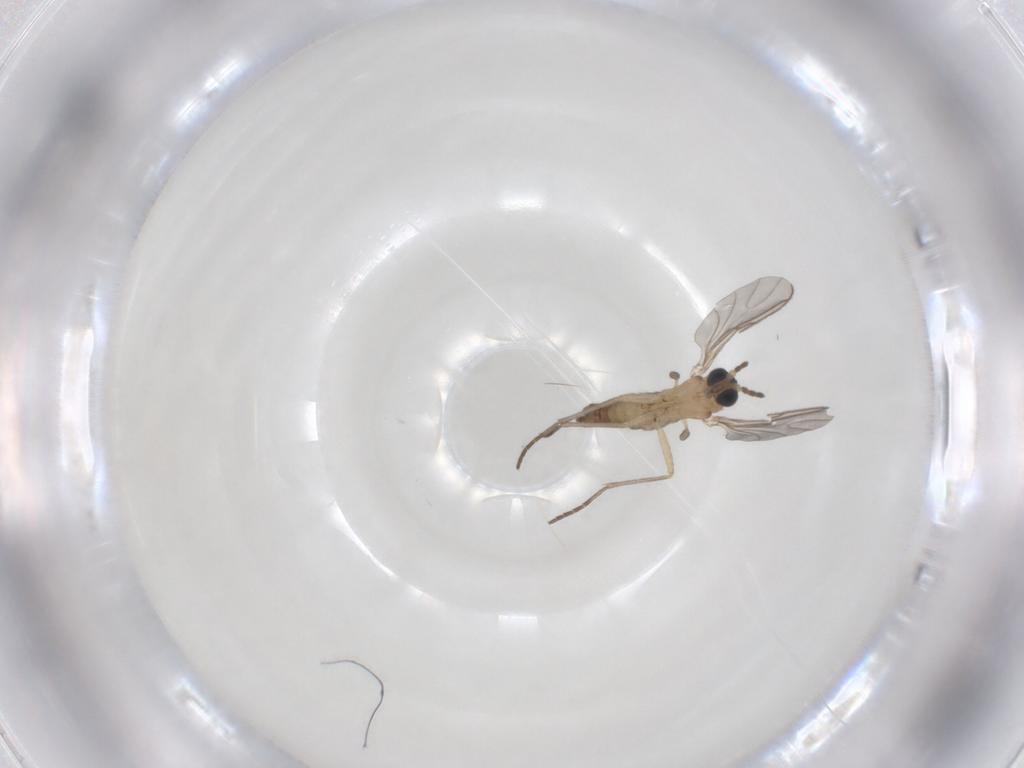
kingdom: Animalia
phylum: Arthropoda
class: Insecta
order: Diptera
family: Sciaridae
